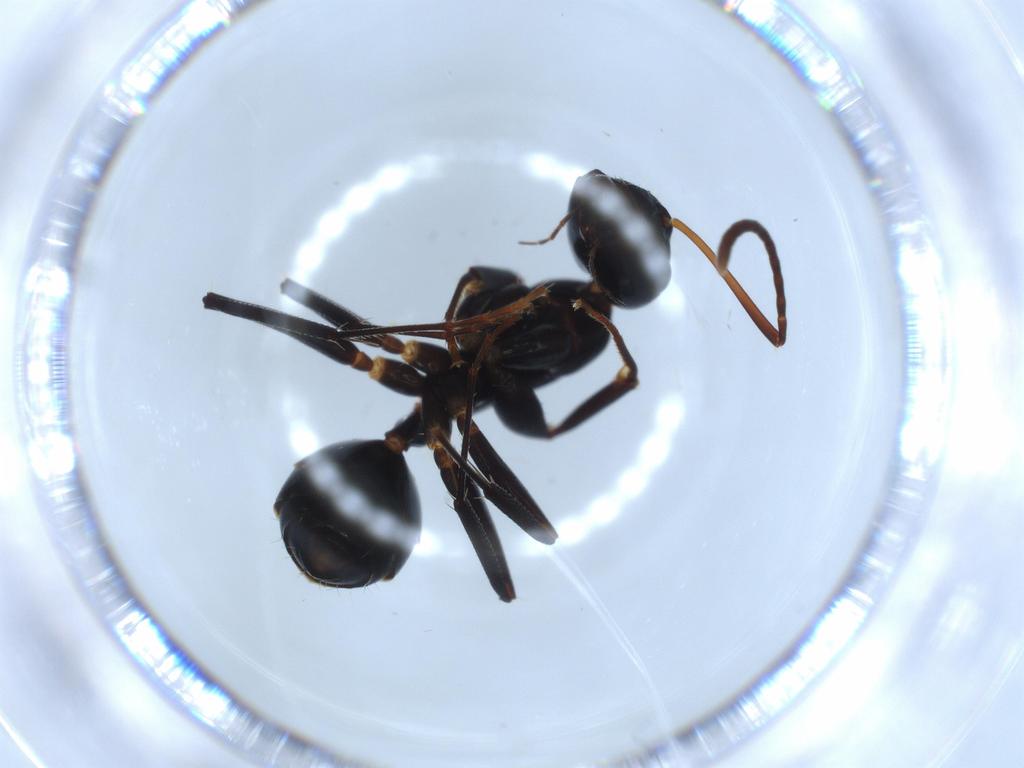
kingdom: Animalia
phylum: Arthropoda
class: Insecta
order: Hymenoptera
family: Formicidae
